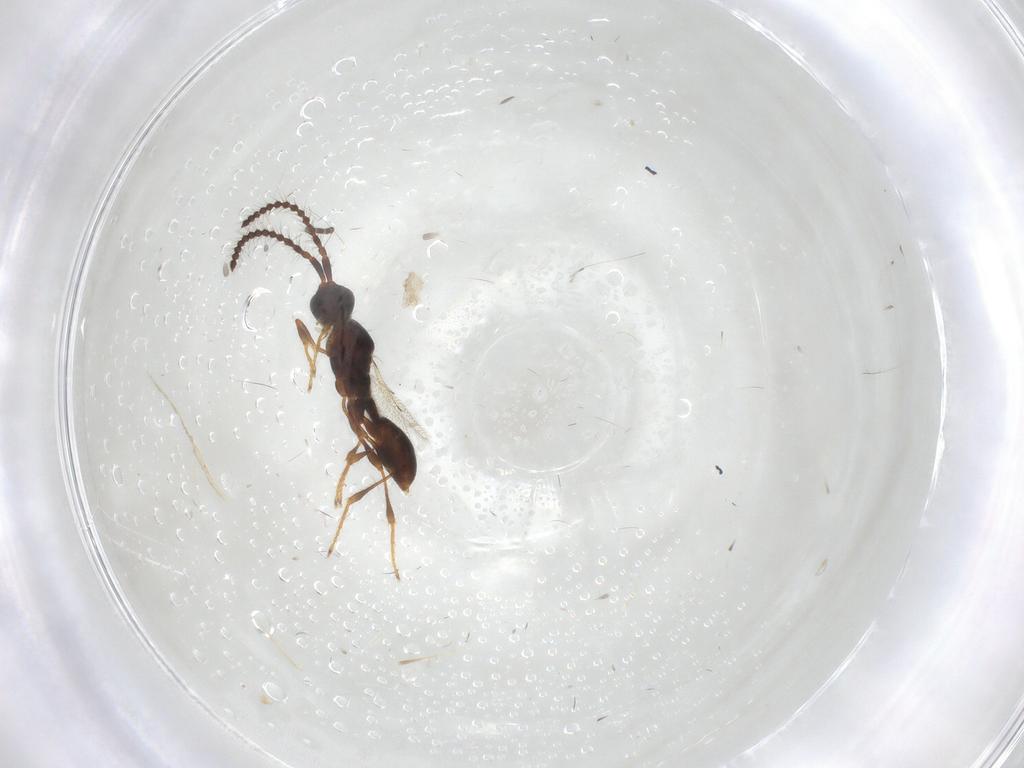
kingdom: Animalia
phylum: Arthropoda
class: Insecta
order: Hymenoptera
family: Diapriidae
